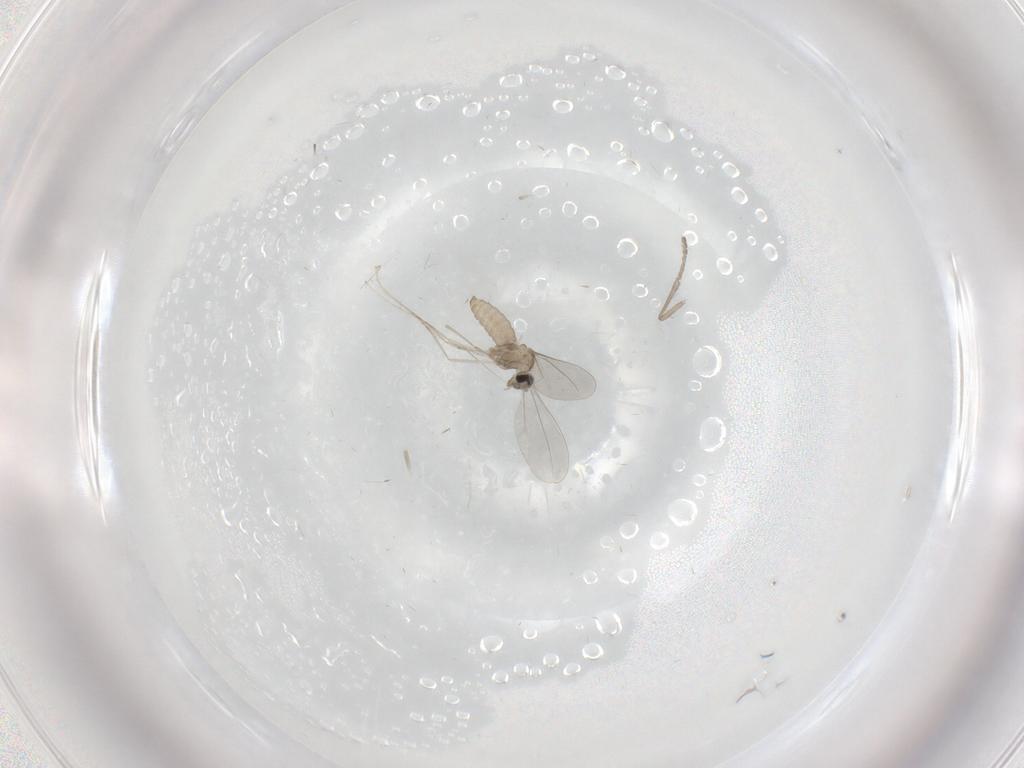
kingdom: Animalia
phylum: Arthropoda
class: Insecta
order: Diptera
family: Psychodidae
